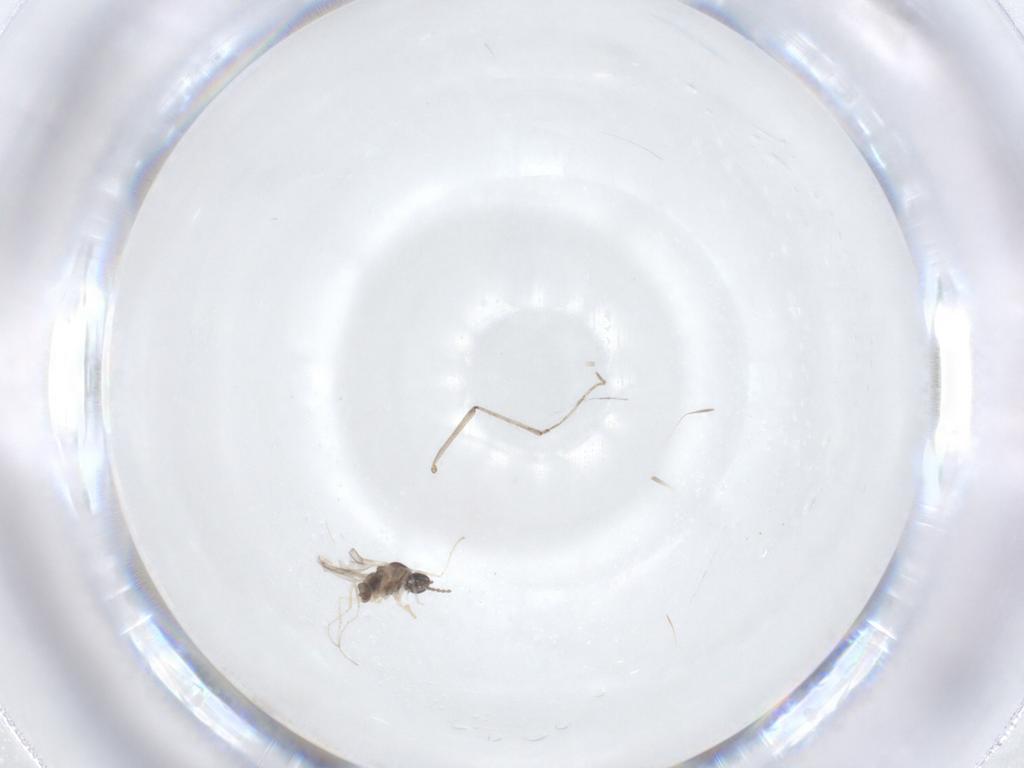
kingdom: Animalia
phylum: Arthropoda
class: Insecta
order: Diptera
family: Cecidomyiidae
